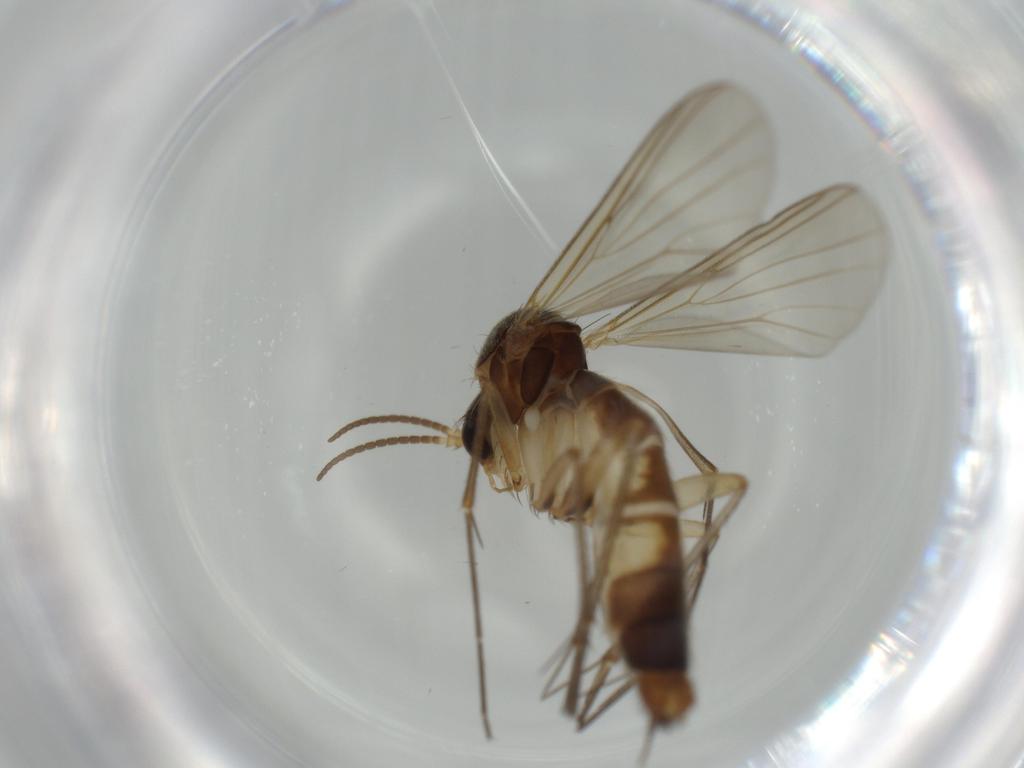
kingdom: Animalia
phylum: Arthropoda
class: Insecta
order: Diptera
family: Mycetophilidae
